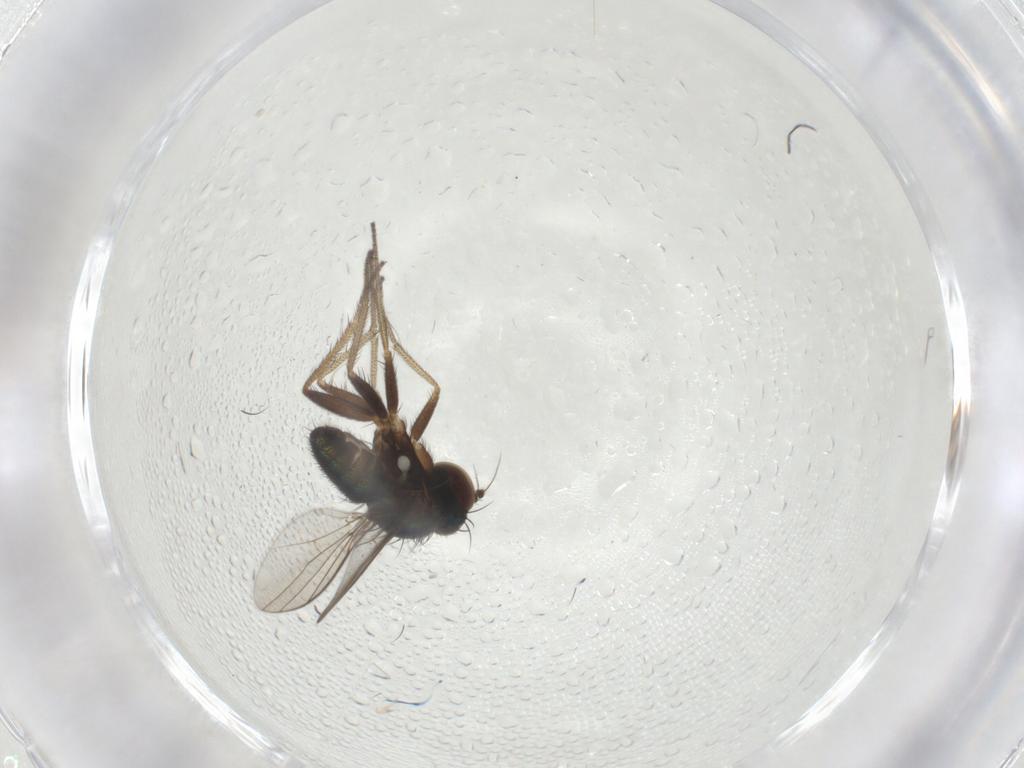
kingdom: Animalia
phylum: Arthropoda
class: Insecta
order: Diptera
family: Dolichopodidae
